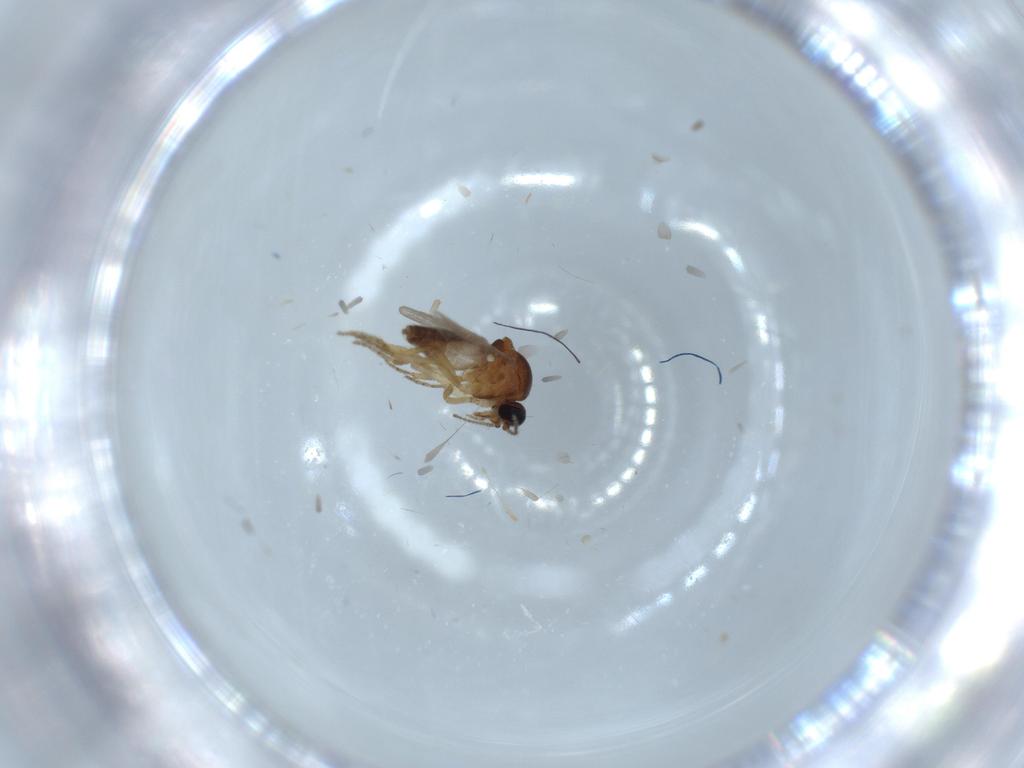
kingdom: Animalia
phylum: Arthropoda
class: Insecta
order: Diptera
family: Ceratopogonidae
